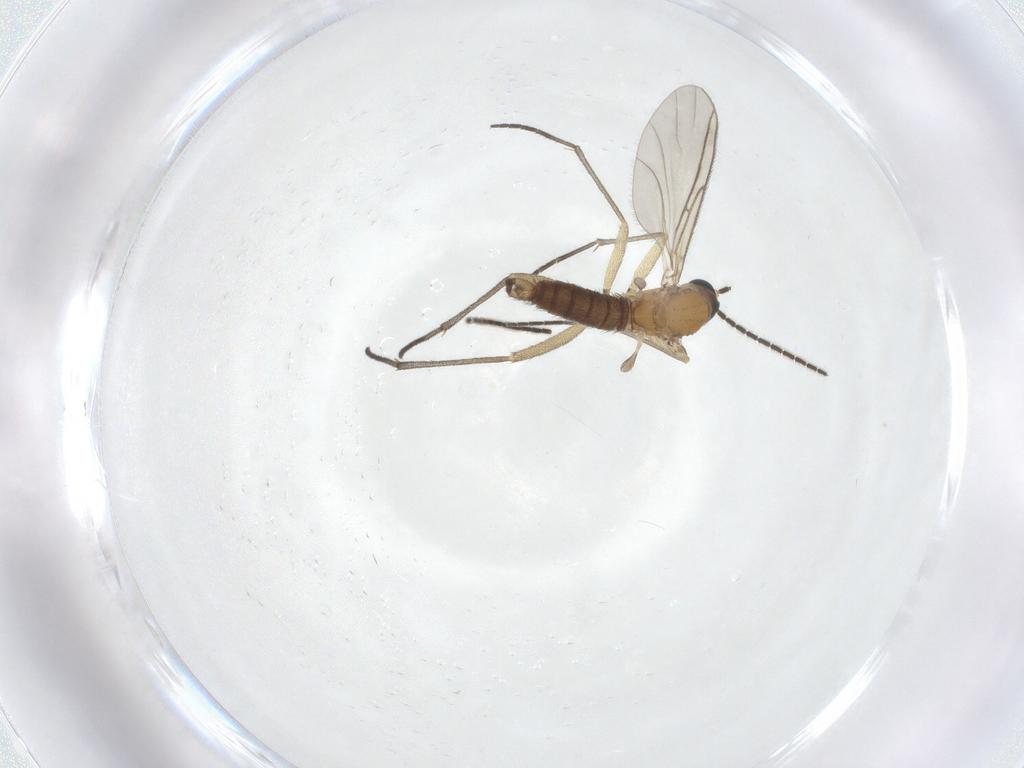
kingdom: Animalia
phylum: Arthropoda
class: Insecta
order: Diptera
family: Sciaridae
